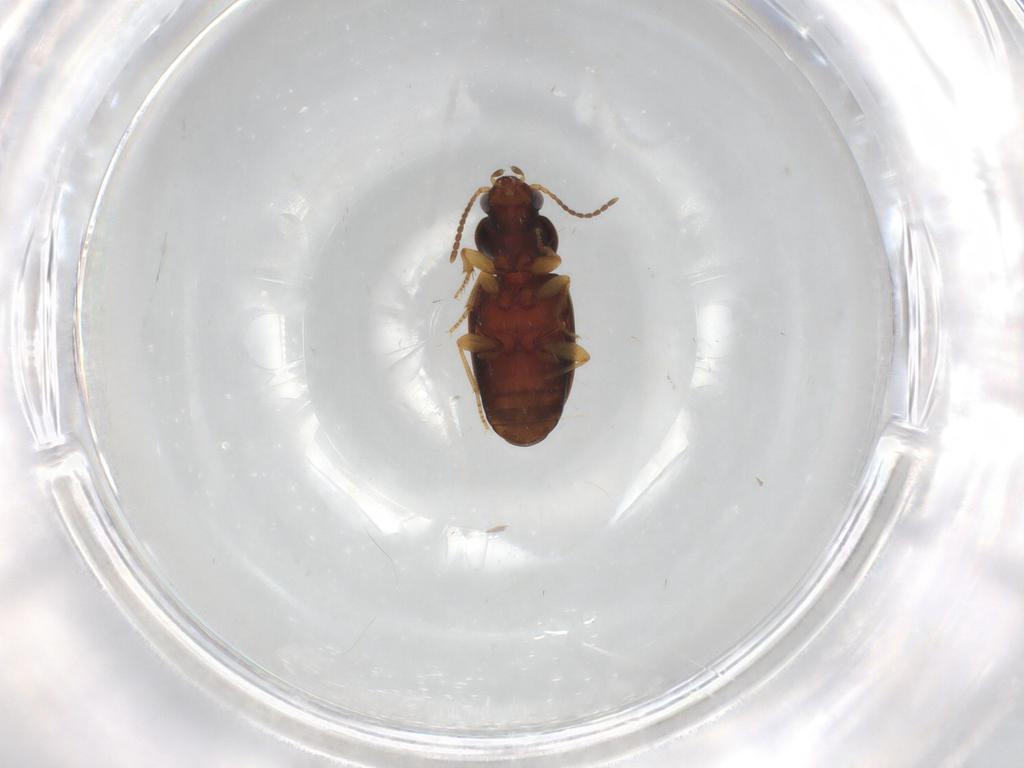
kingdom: Animalia
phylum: Arthropoda
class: Insecta
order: Coleoptera
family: Carabidae
